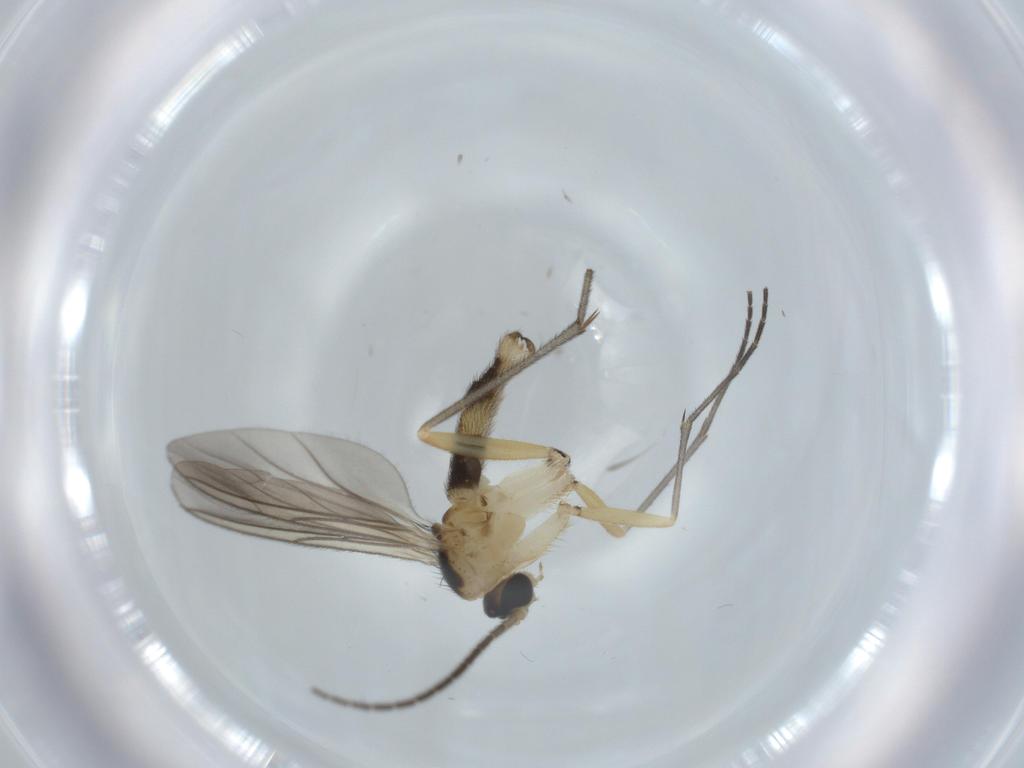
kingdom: Animalia
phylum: Arthropoda
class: Insecta
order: Diptera
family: Sciaridae
